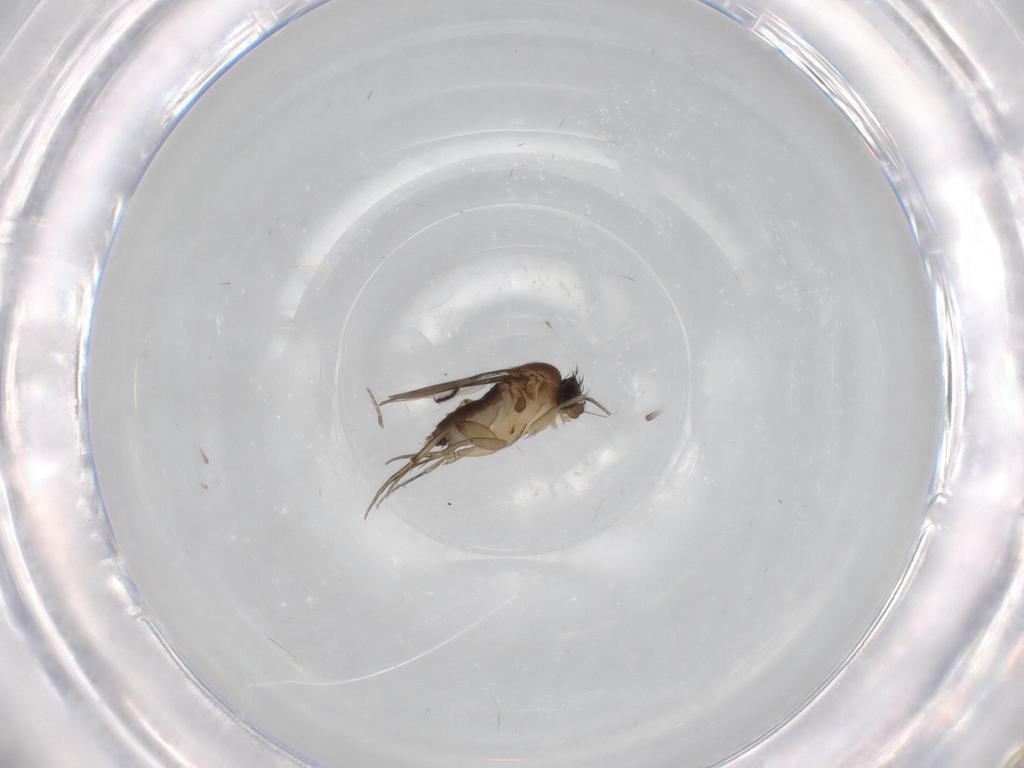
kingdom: Animalia
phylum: Arthropoda
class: Insecta
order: Diptera
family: Phoridae
